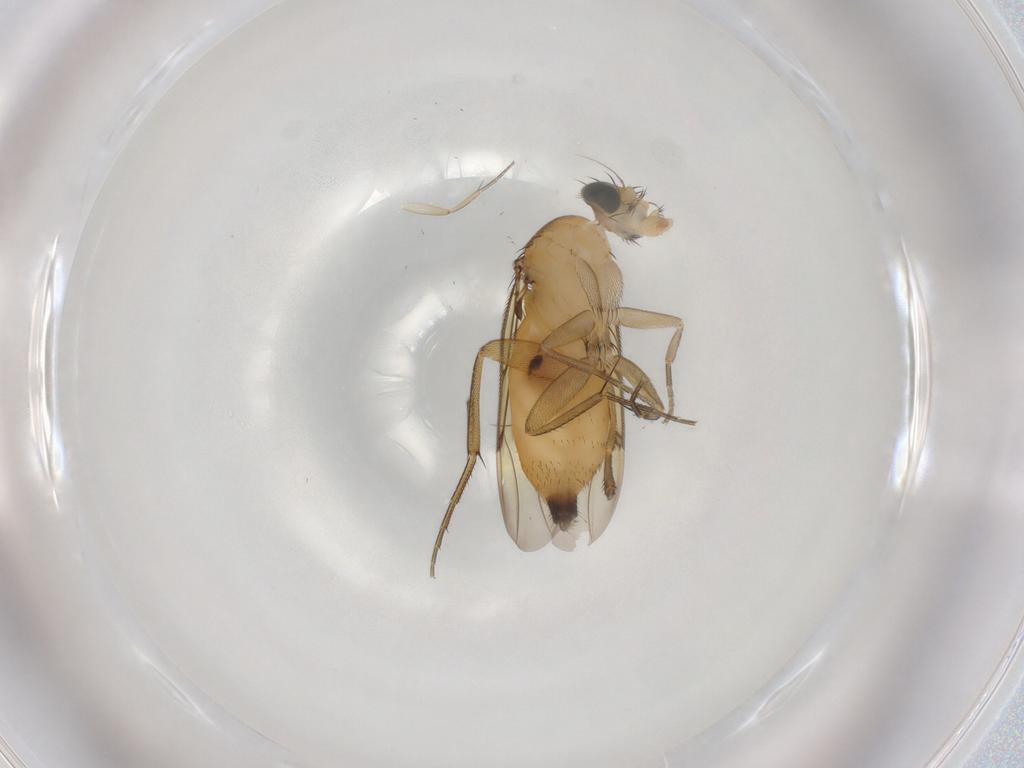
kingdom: Animalia
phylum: Arthropoda
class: Insecta
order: Diptera
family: Phoridae
